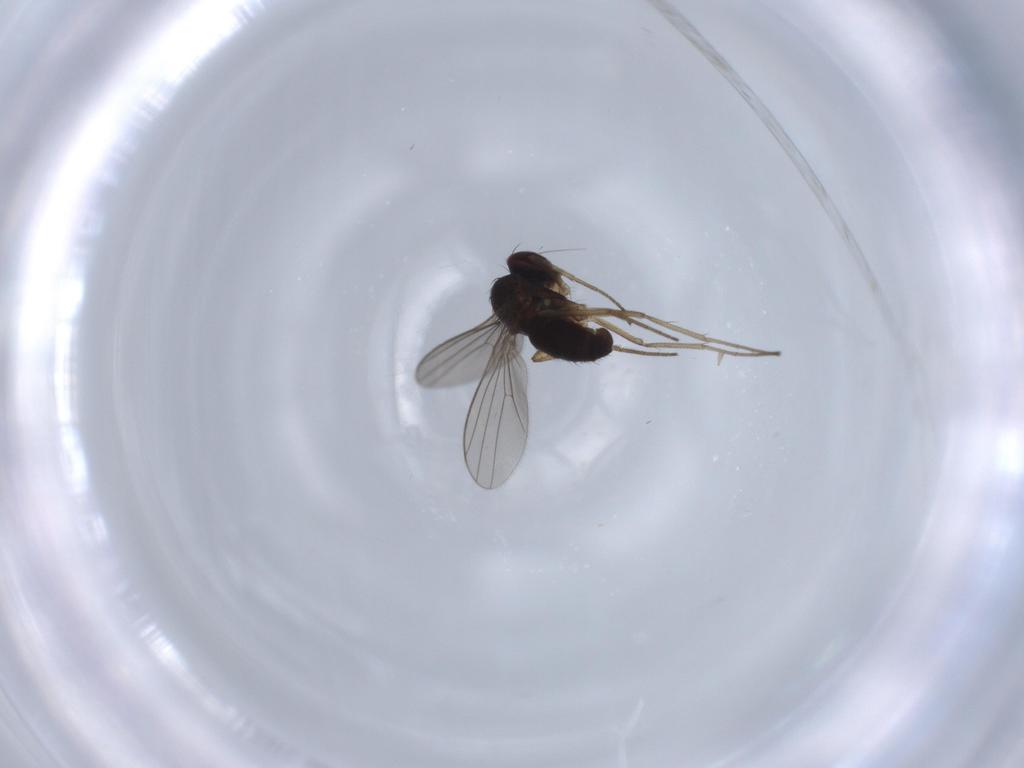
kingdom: Animalia
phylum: Arthropoda
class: Insecta
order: Diptera
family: Dolichopodidae
